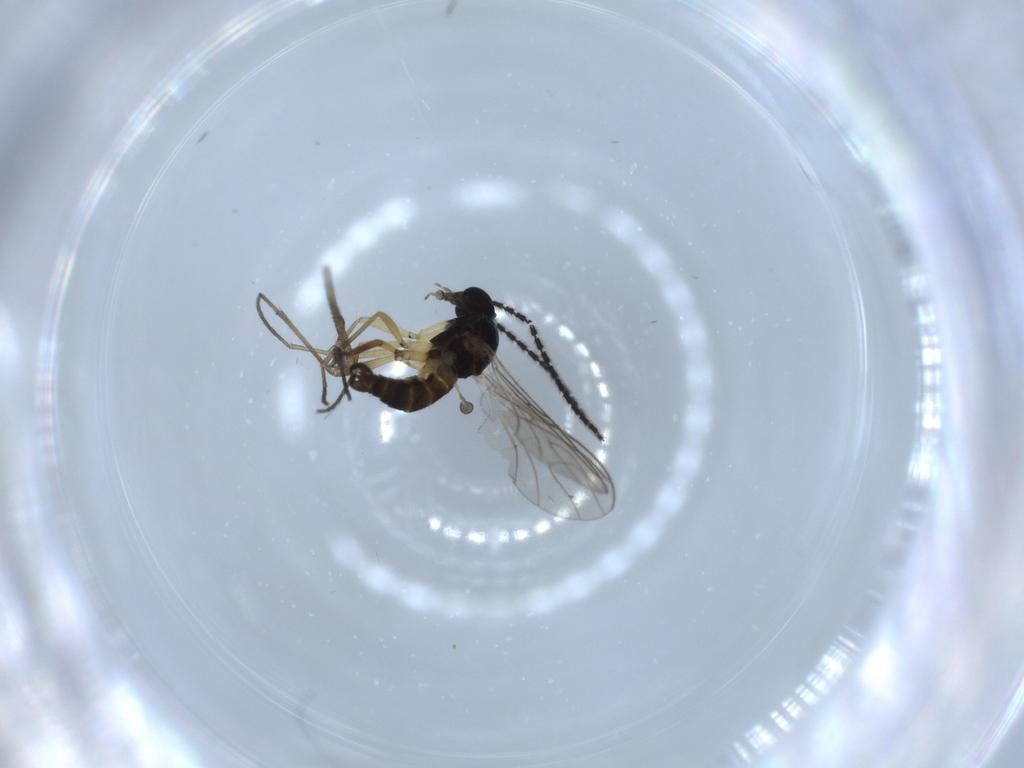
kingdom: Animalia
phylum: Arthropoda
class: Insecta
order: Diptera
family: Sciaridae
